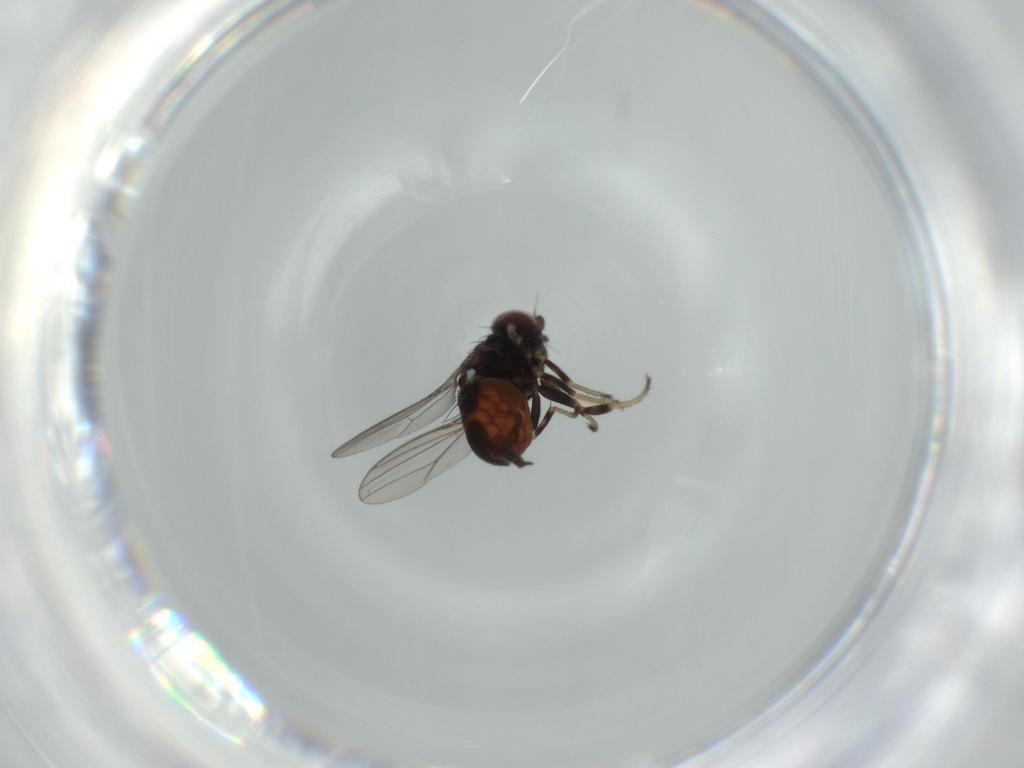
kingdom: Animalia
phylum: Arthropoda
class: Insecta
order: Diptera
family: Chloropidae
